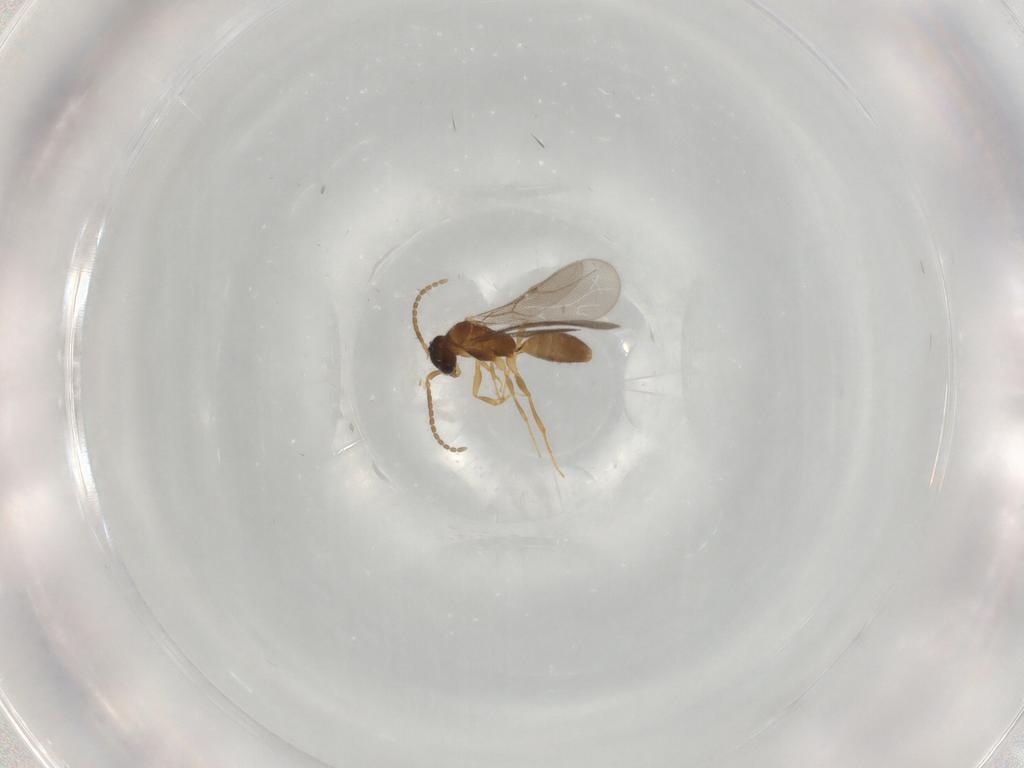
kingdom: Animalia
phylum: Arthropoda
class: Insecta
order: Hymenoptera
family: Bethylidae
